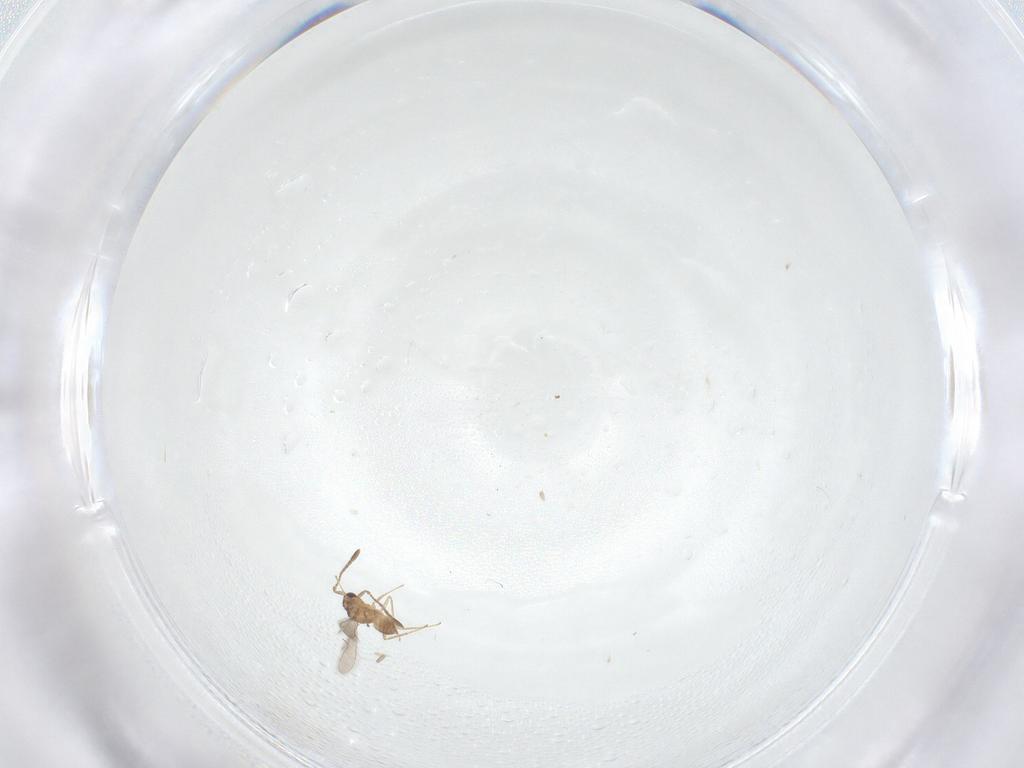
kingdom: Animalia
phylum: Arthropoda
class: Insecta
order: Hymenoptera
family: Mymaridae
